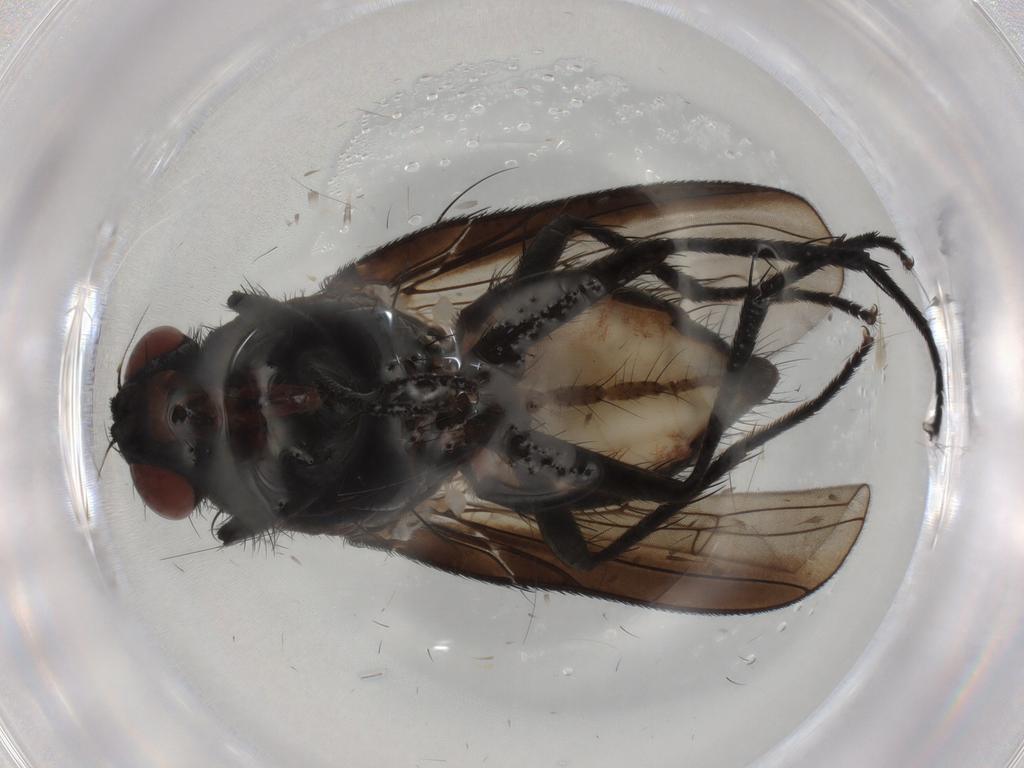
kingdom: Animalia
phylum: Arthropoda
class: Insecta
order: Diptera
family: Anthomyiidae
